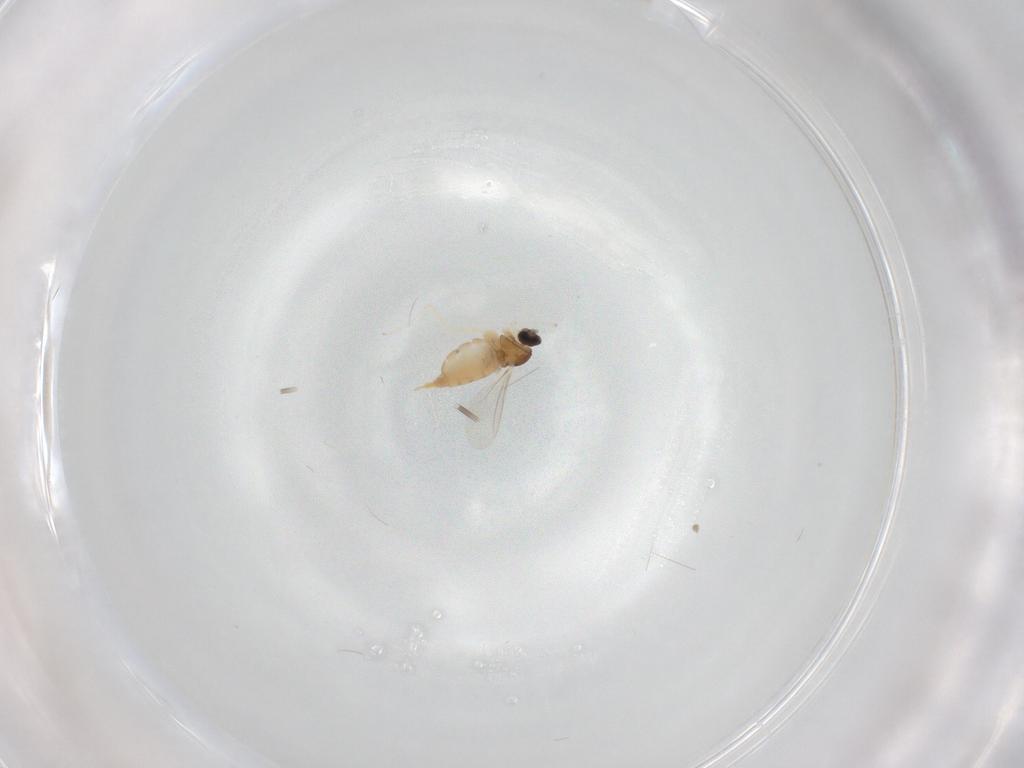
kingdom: Animalia
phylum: Arthropoda
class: Insecta
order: Diptera
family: Cecidomyiidae
